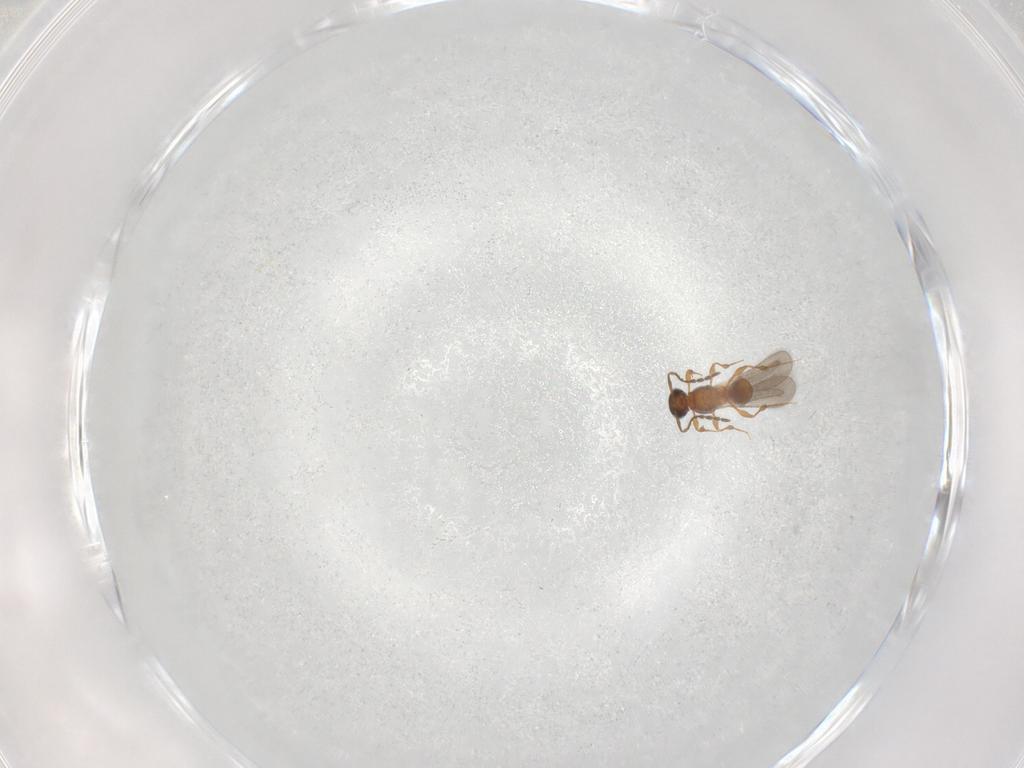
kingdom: Animalia
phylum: Arthropoda
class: Insecta
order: Hymenoptera
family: Platygastridae
